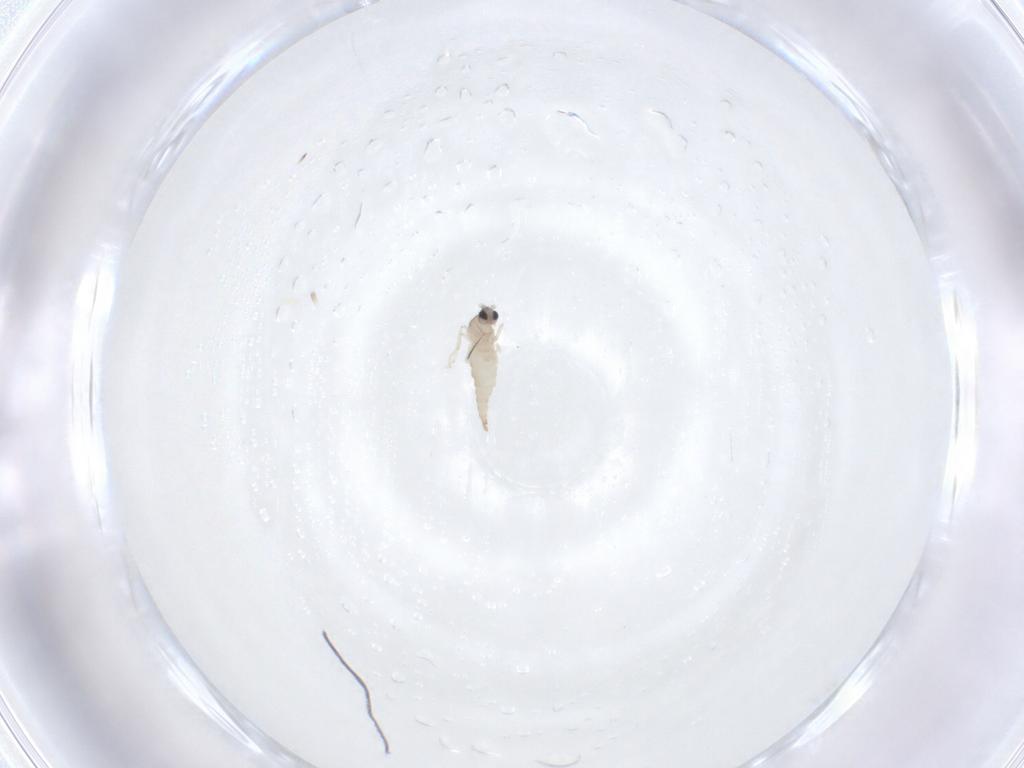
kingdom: Animalia
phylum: Arthropoda
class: Insecta
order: Diptera
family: Cecidomyiidae
